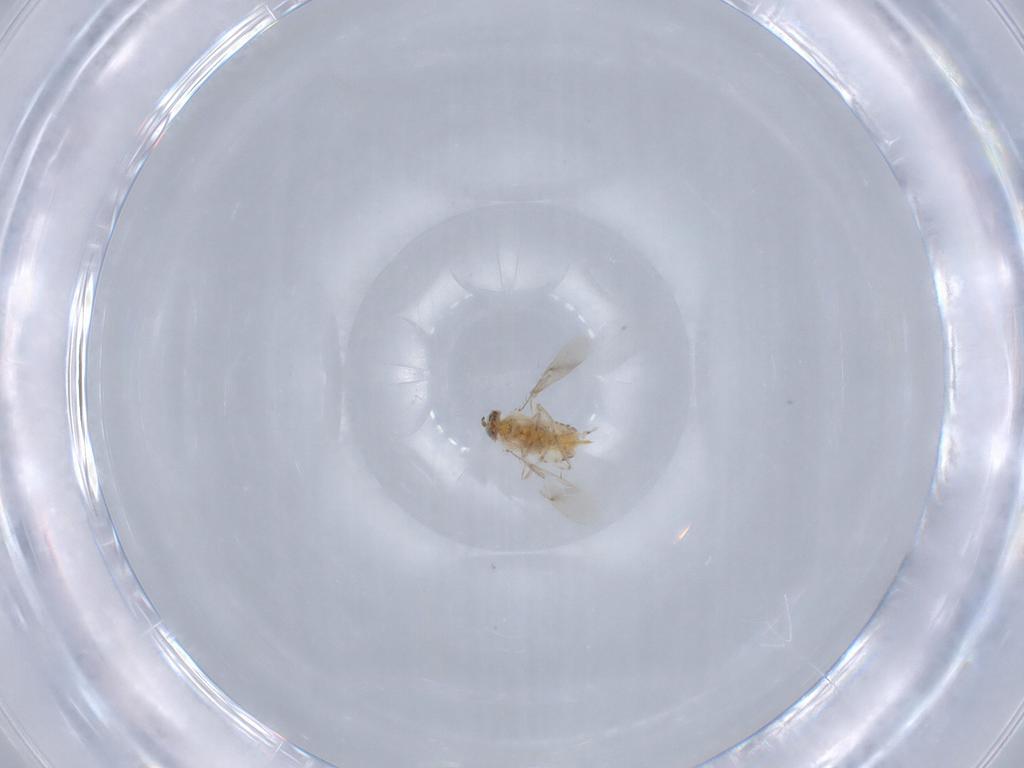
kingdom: Animalia
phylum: Arthropoda
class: Insecta
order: Hymenoptera
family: Aphelinidae
